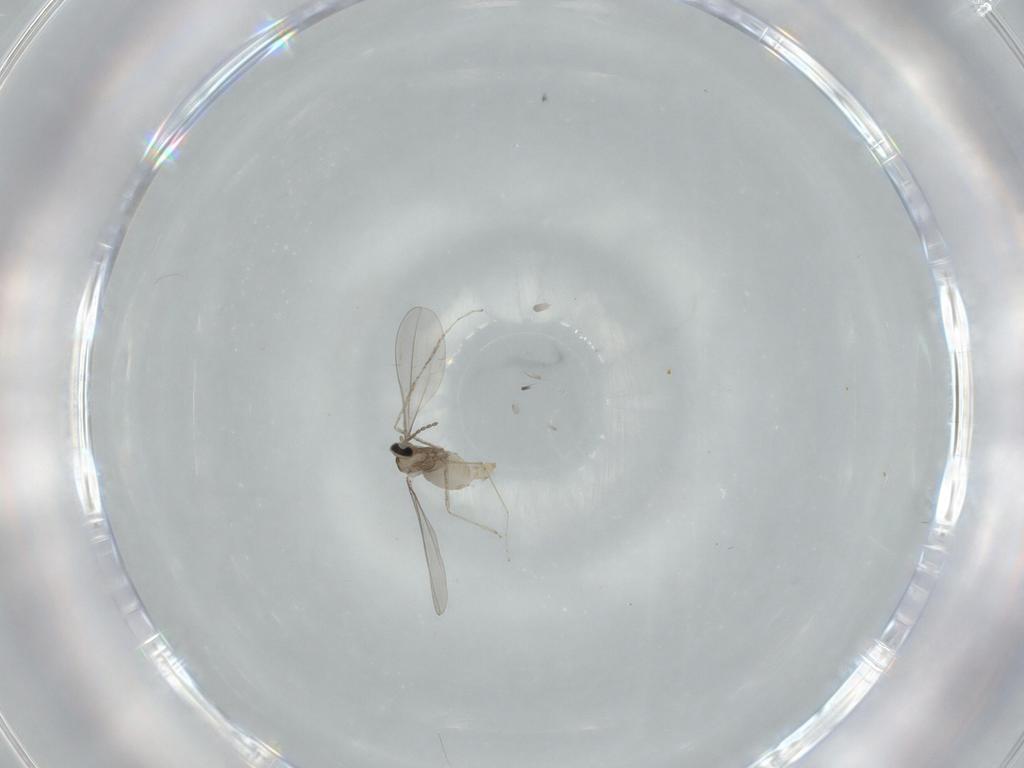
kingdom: Animalia
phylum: Arthropoda
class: Insecta
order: Diptera
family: Cecidomyiidae
